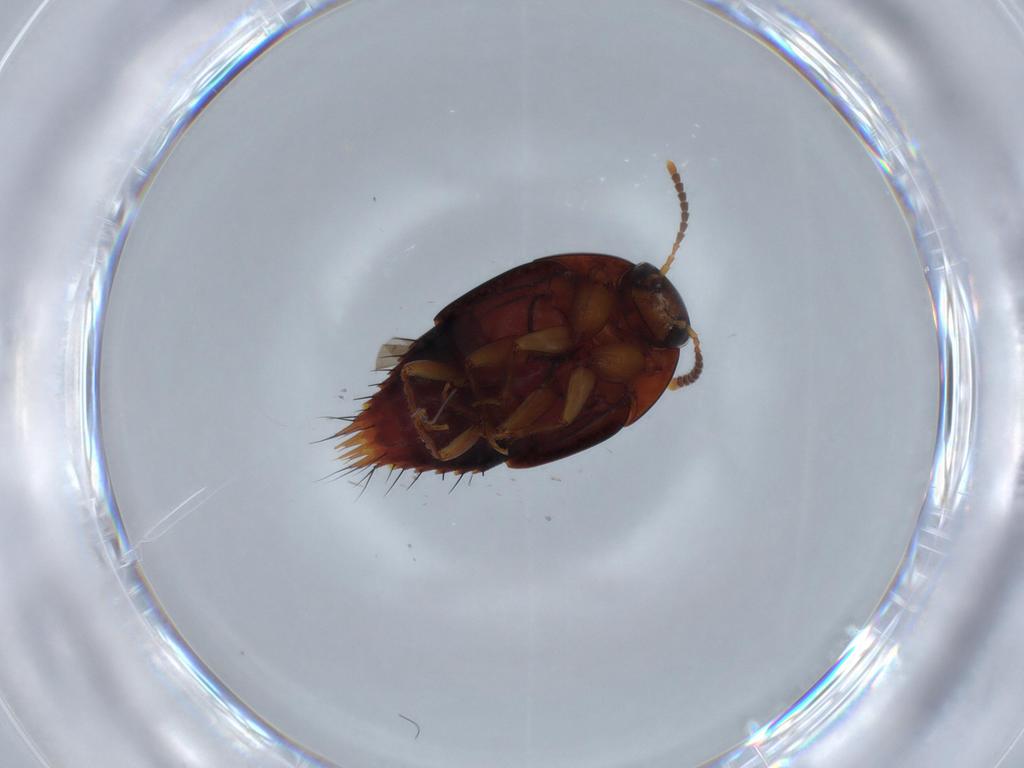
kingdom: Animalia
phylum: Arthropoda
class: Insecta
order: Coleoptera
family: Staphylinidae
